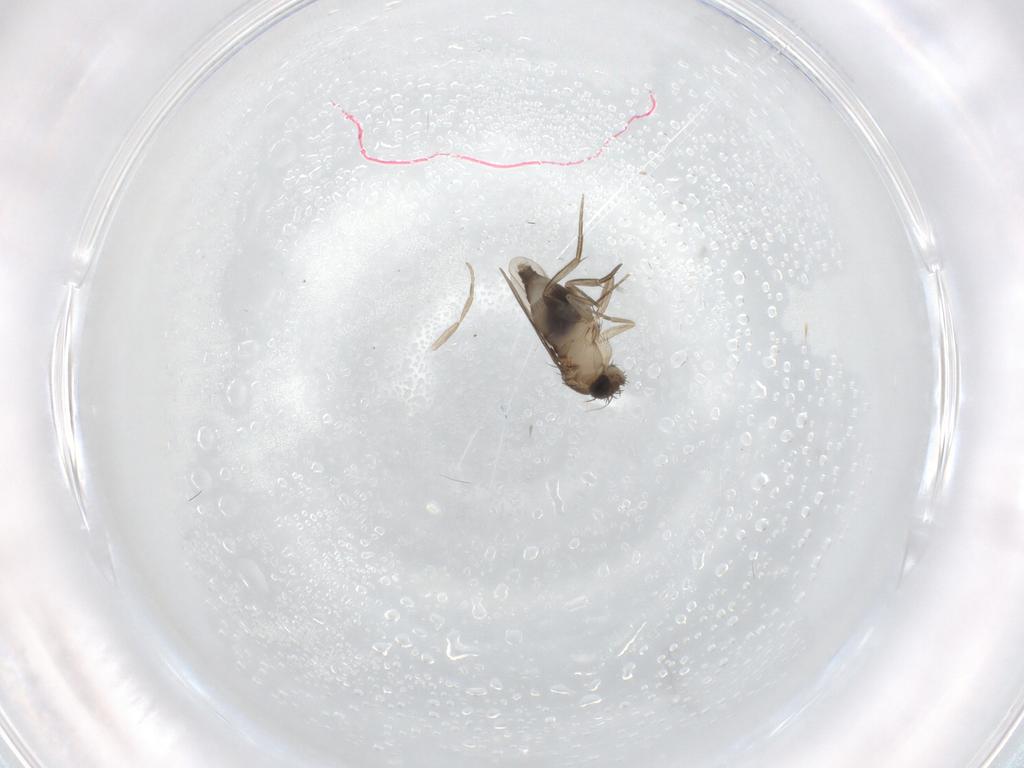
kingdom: Animalia
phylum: Arthropoda
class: Insecta
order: Diptera
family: Phoridae
